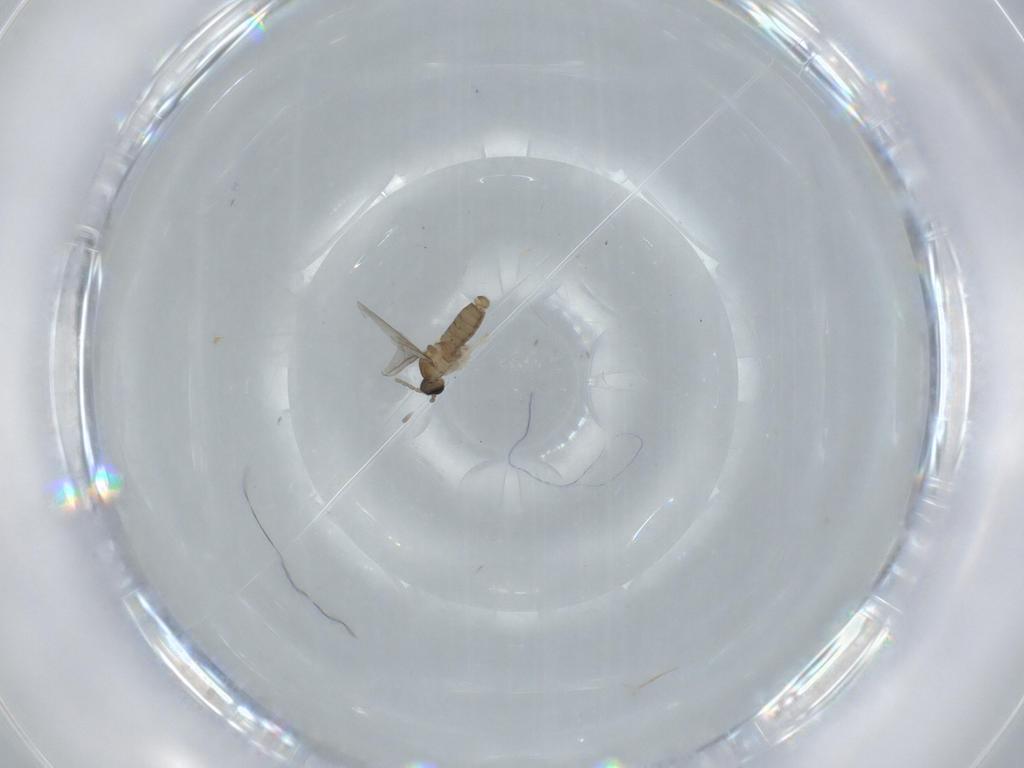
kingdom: Animalia
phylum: Arthropoda
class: Insecta
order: Diptera
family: Cecidomyiidae
